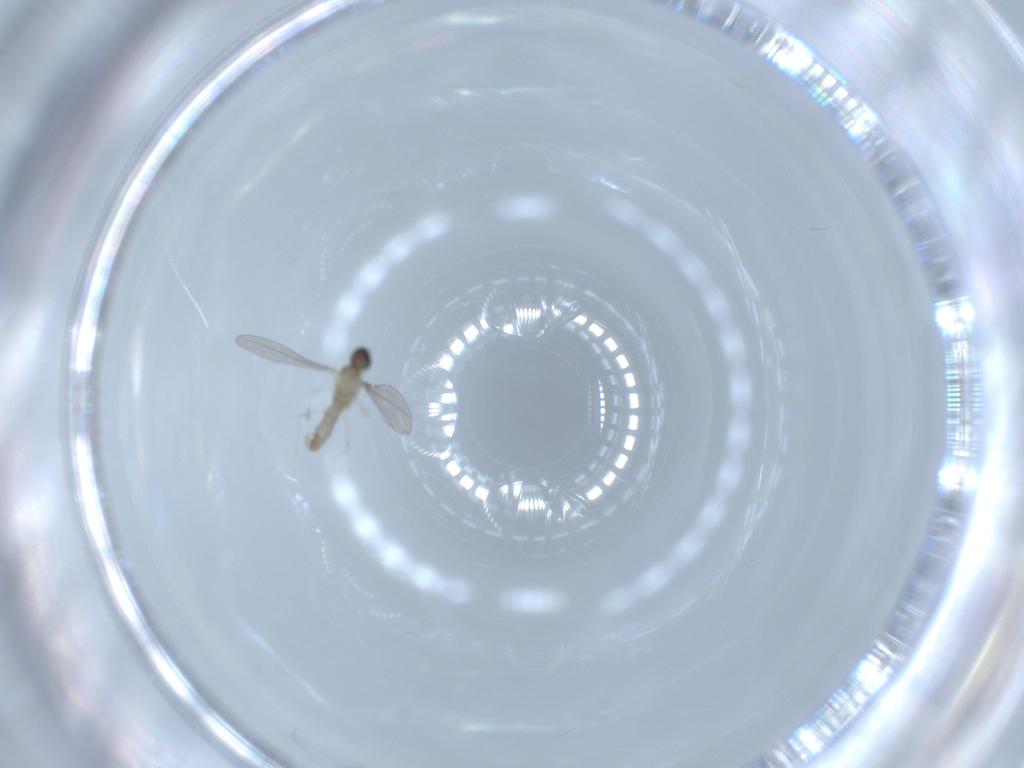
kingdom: Animalia
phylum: Arthropoda
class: Insecta
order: Diptera
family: Cecidomyiidae
